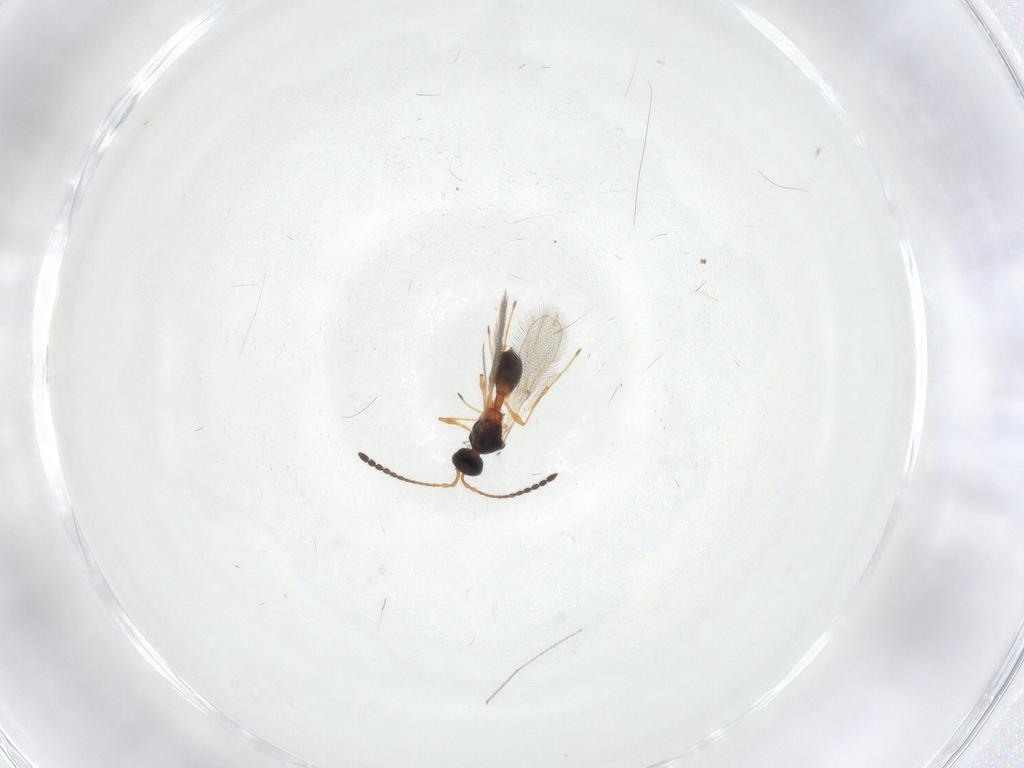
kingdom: Animalia
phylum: Arthropoda
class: Insecta
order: Hymenoptera
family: Diapriidae
